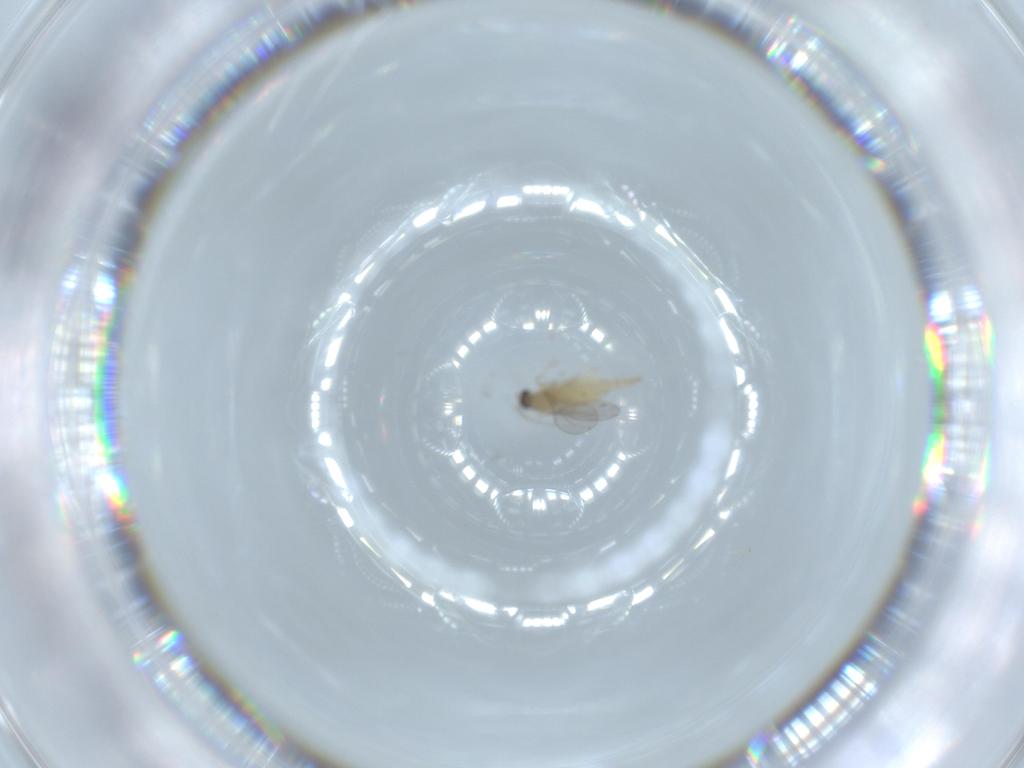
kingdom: Animalia
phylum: Arthropoda
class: Insecta
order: Diptera
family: Cecidomyiidae
